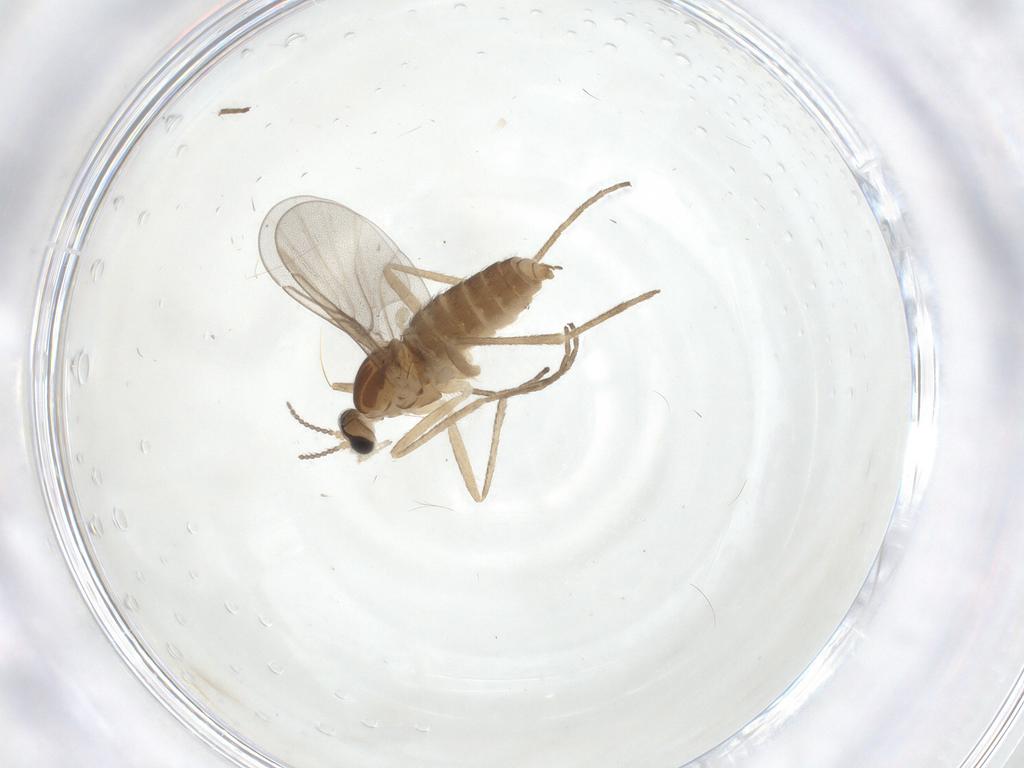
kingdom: Animalia
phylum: Arthropoda
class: Insecta
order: Diptera
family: Cecidomyiidae
